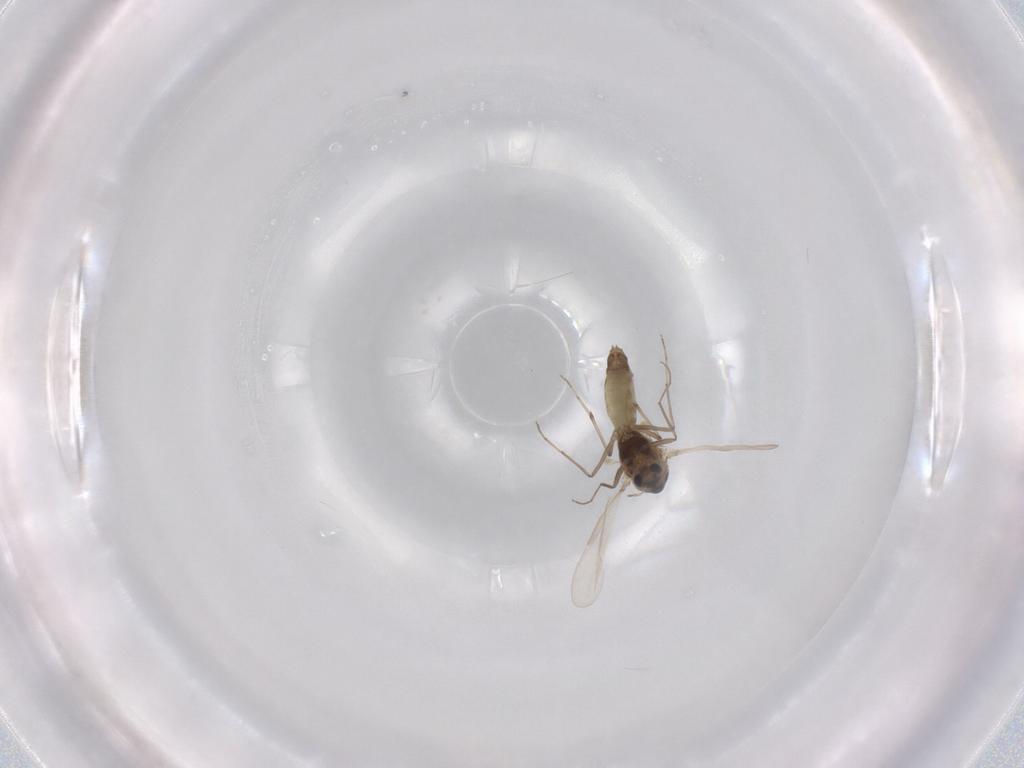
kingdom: Animalia
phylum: Arthropoda
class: Insecta
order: Diptera
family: Chironomidae
